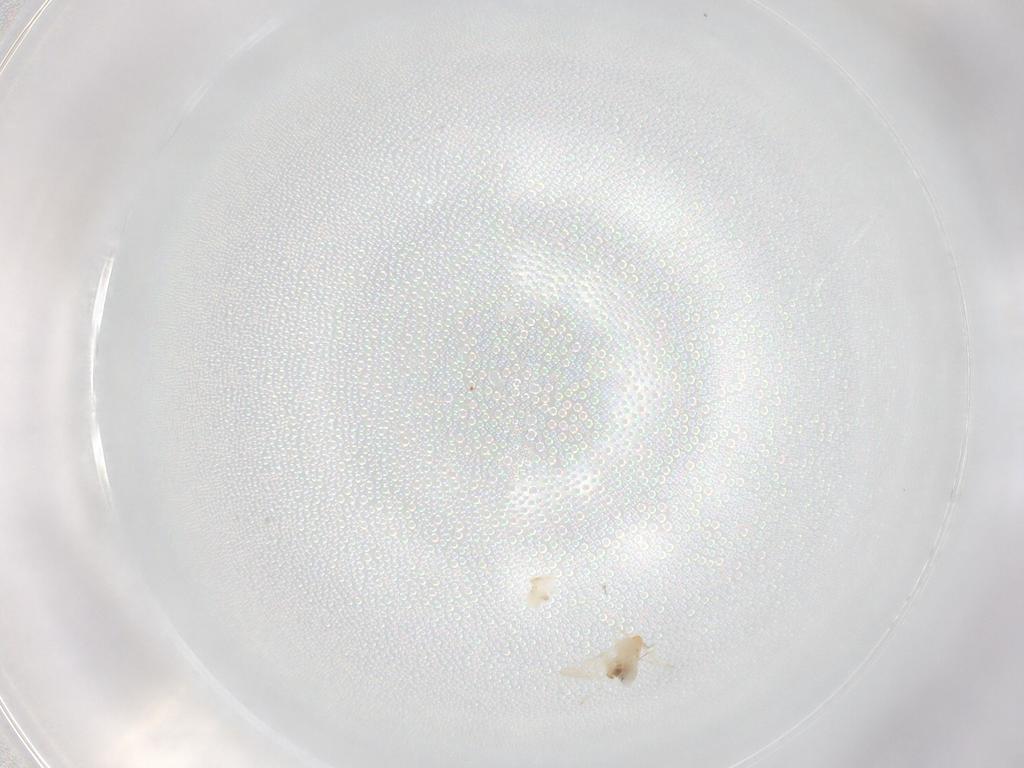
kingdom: Animalia
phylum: Arthropoda
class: Insecta
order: Diptera
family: Cecidomyiidae
